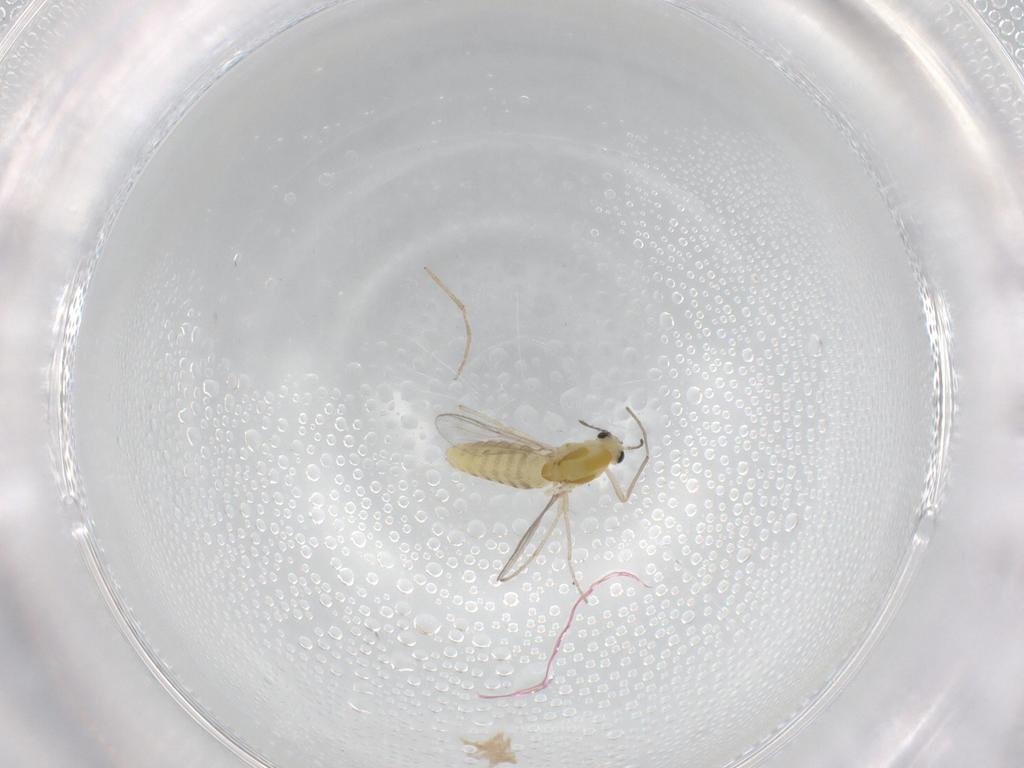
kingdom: Animalia
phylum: Arthropoda
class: Insecta
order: Diptera
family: Chironomidae
